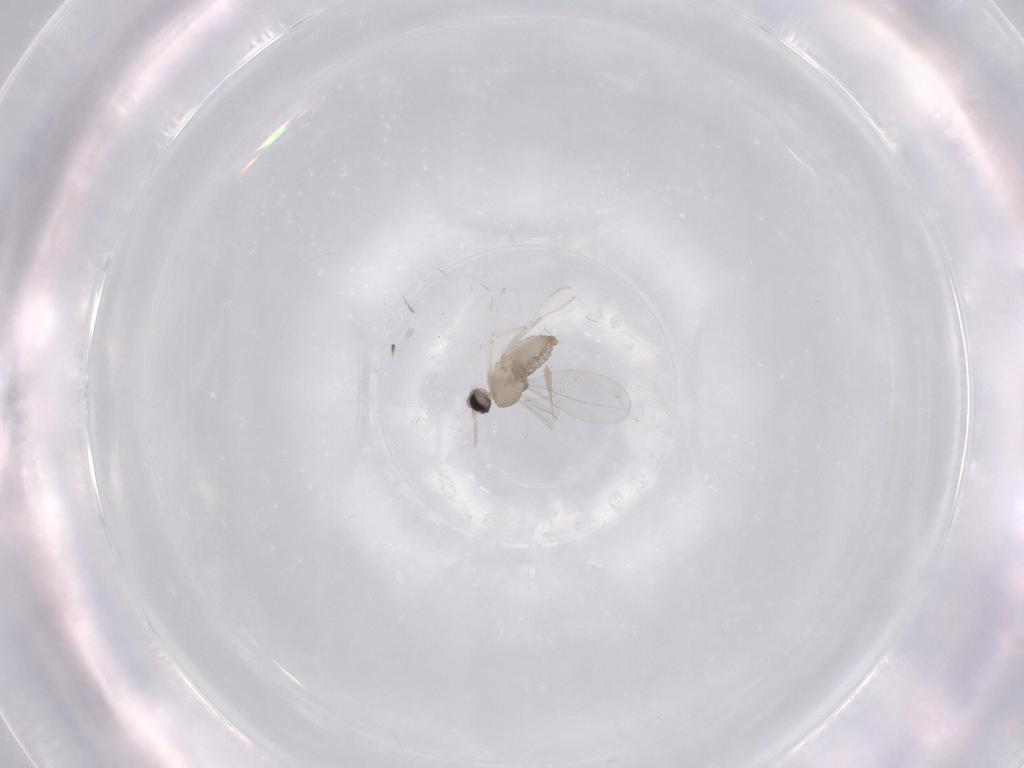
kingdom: Animalia
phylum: Arthropoda
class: Insecta
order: Diptera
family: Cecidomyiidae
